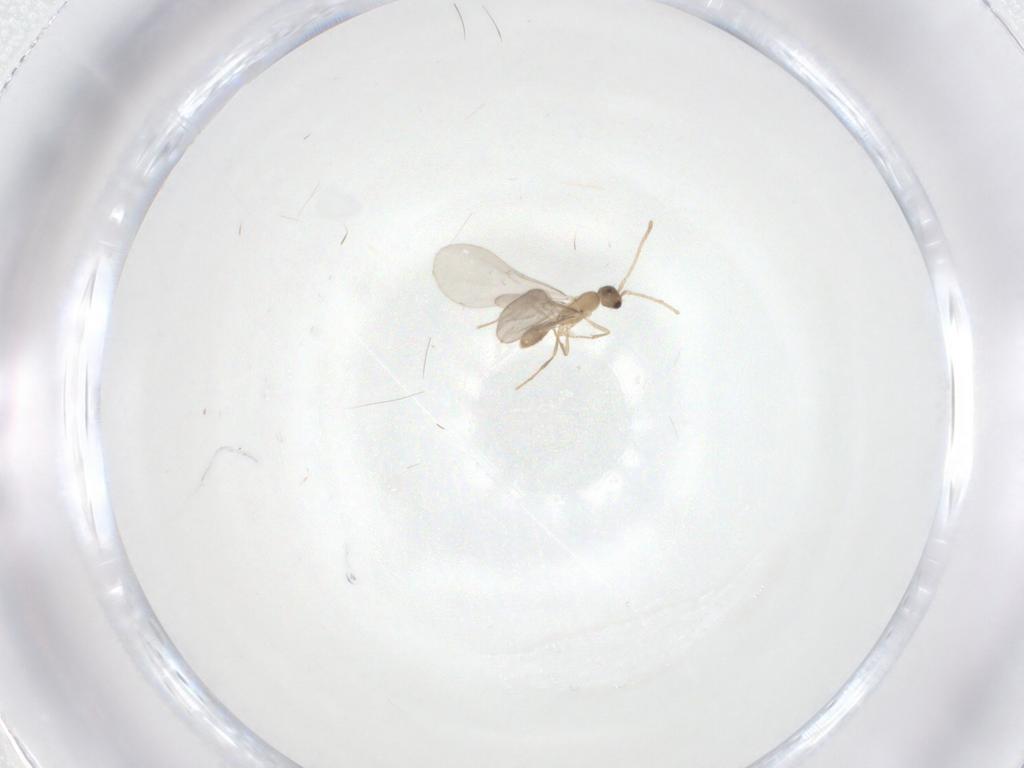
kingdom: Animalia
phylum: Arthropoda
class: Insecta
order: Hymenoptera
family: Formicidae
